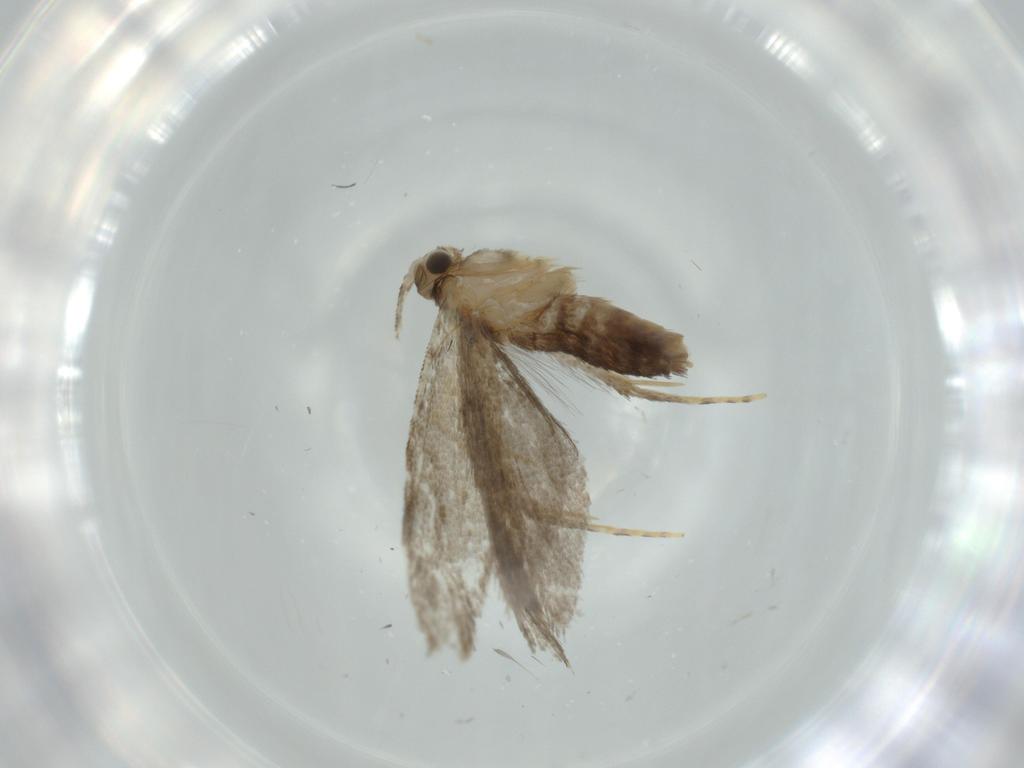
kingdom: Animalia
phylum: Arthropoda
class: Insecta
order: Lepidoptera
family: Tineidae
